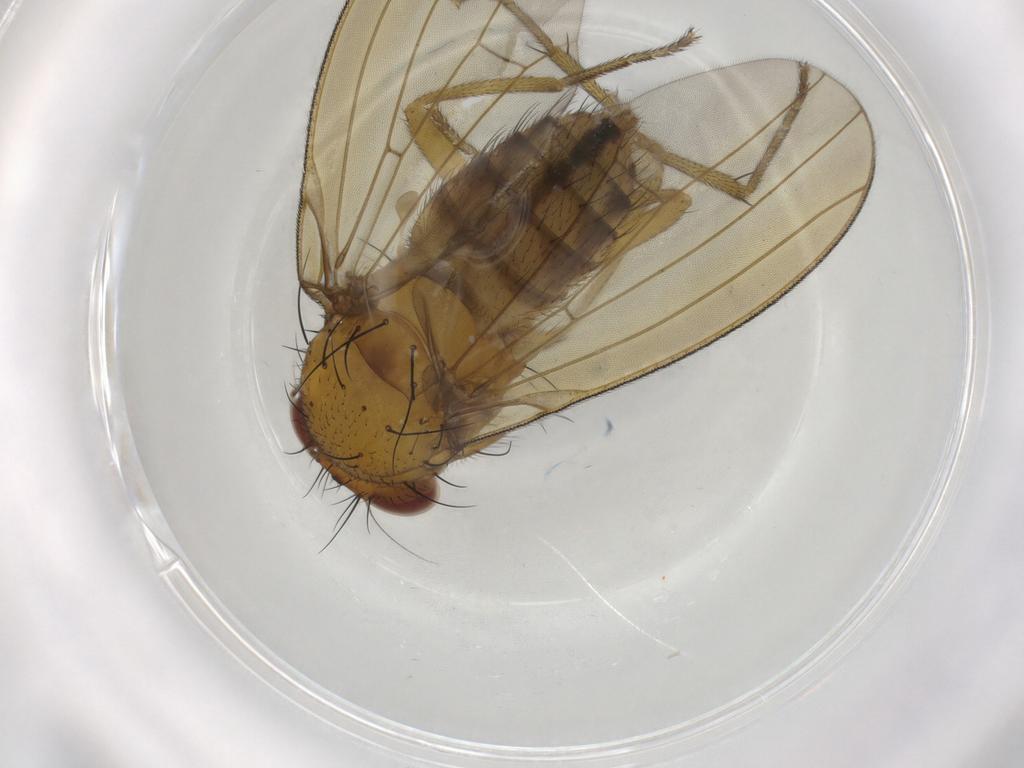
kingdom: Animalia
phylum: Arthropoda
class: Insecta
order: Diptera
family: Lauxaniidae
